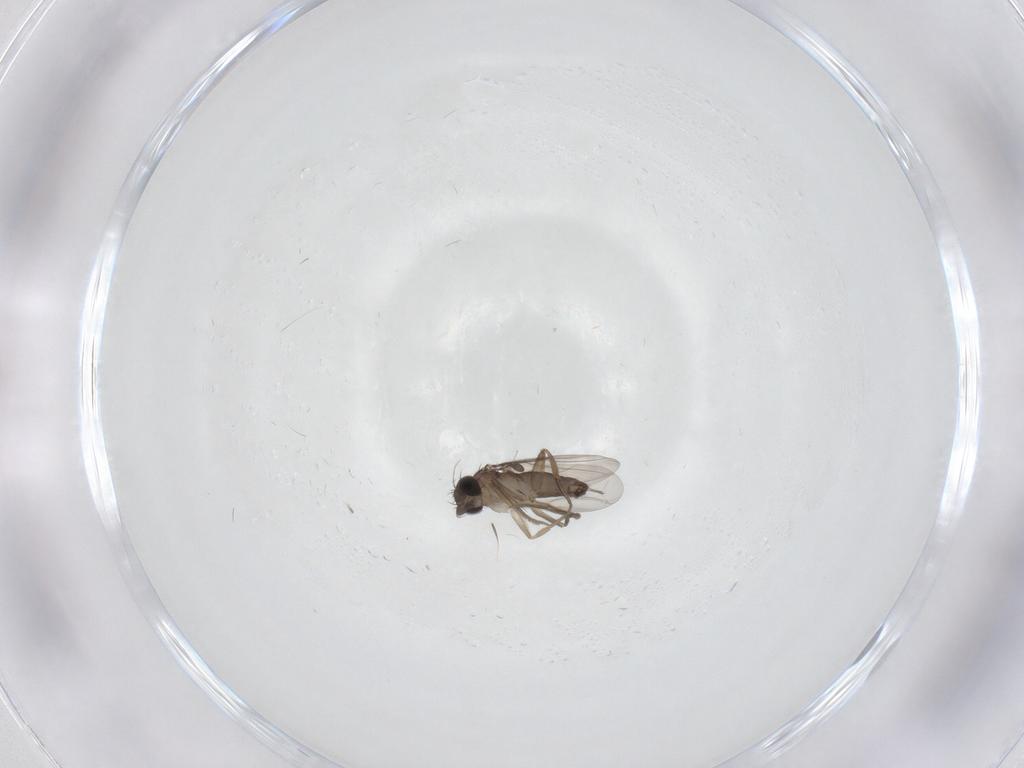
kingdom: Animalia
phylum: Arthropoda
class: Insecta
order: Diptera
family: Phoridae
